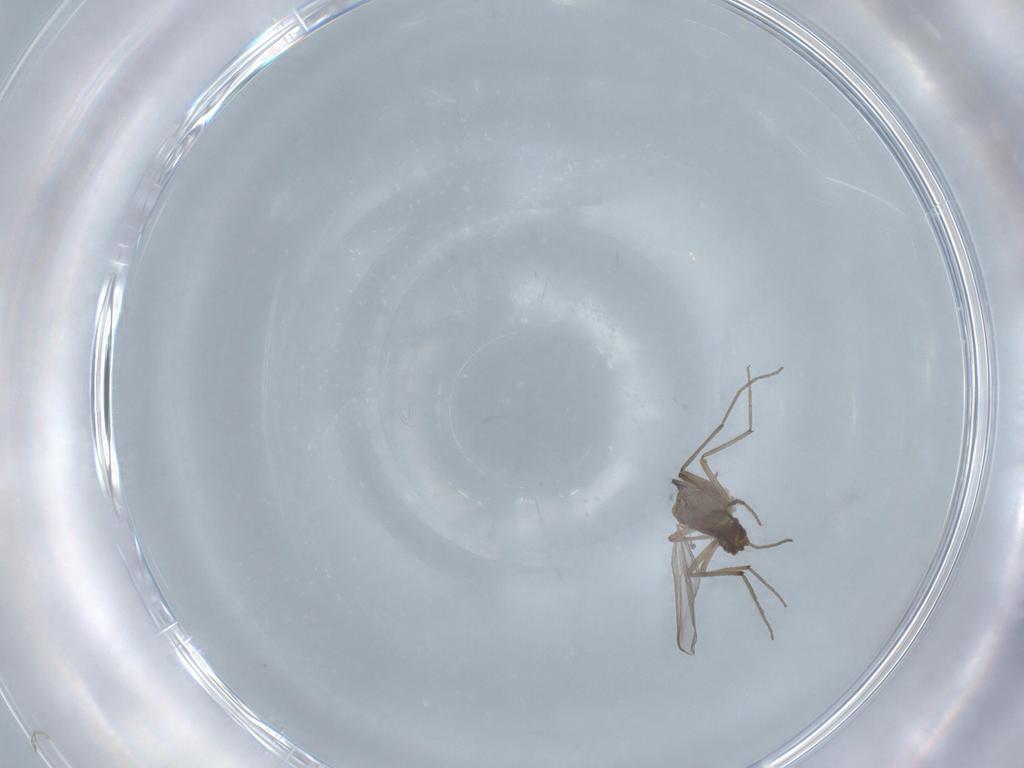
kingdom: Animalia
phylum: Arthropoda
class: Insecta
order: Diptera
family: Chironomidae
